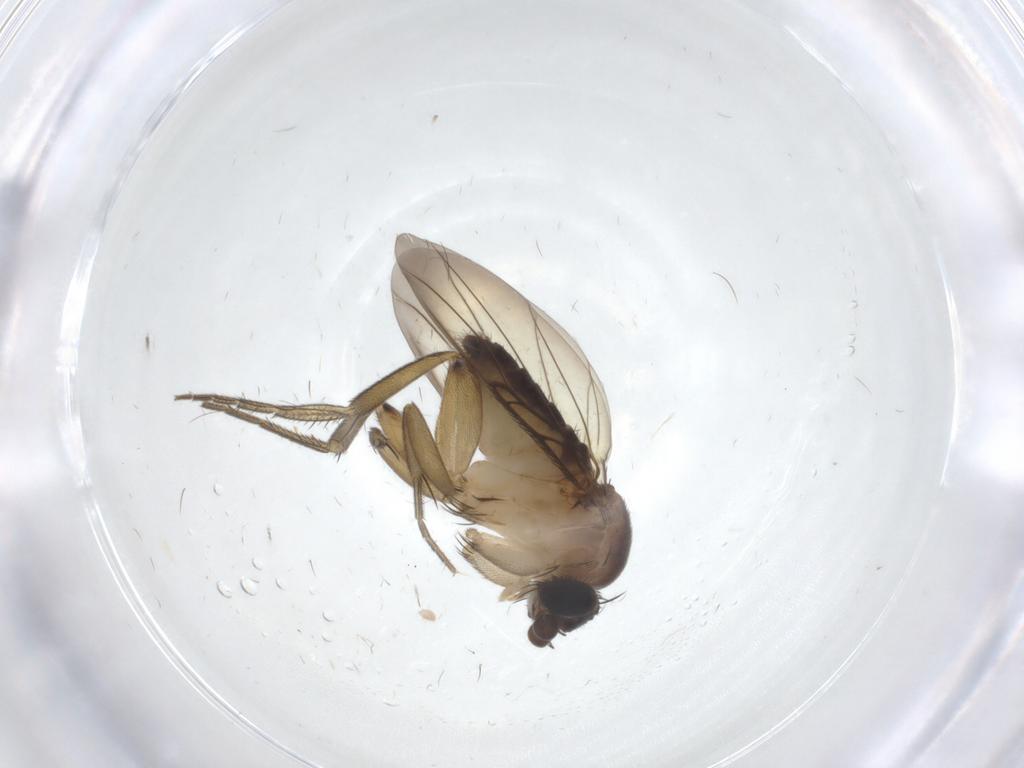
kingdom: Animalia
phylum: Arthropoda
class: Insecta
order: Diptera
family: Phoridae
